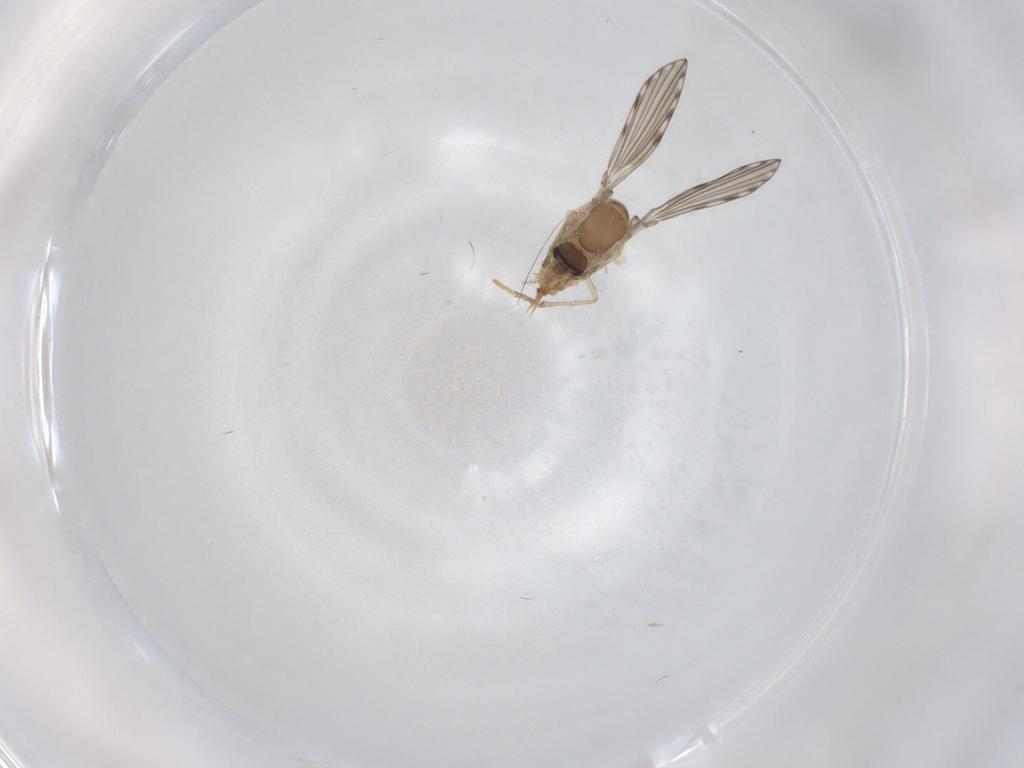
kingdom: Animalia
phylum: Arthropoda
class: Insecta
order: Diptera
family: Psychodidae
